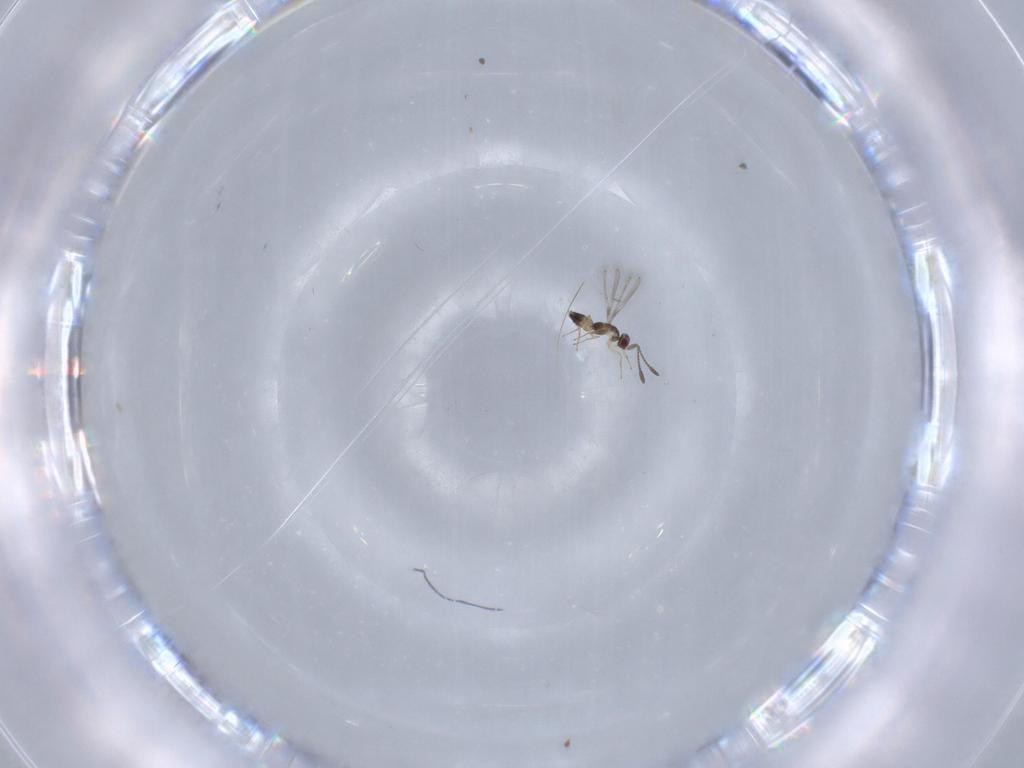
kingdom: Animalia
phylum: Arthropoda
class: Insecta
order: Hymenoptera
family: Mymaridae
